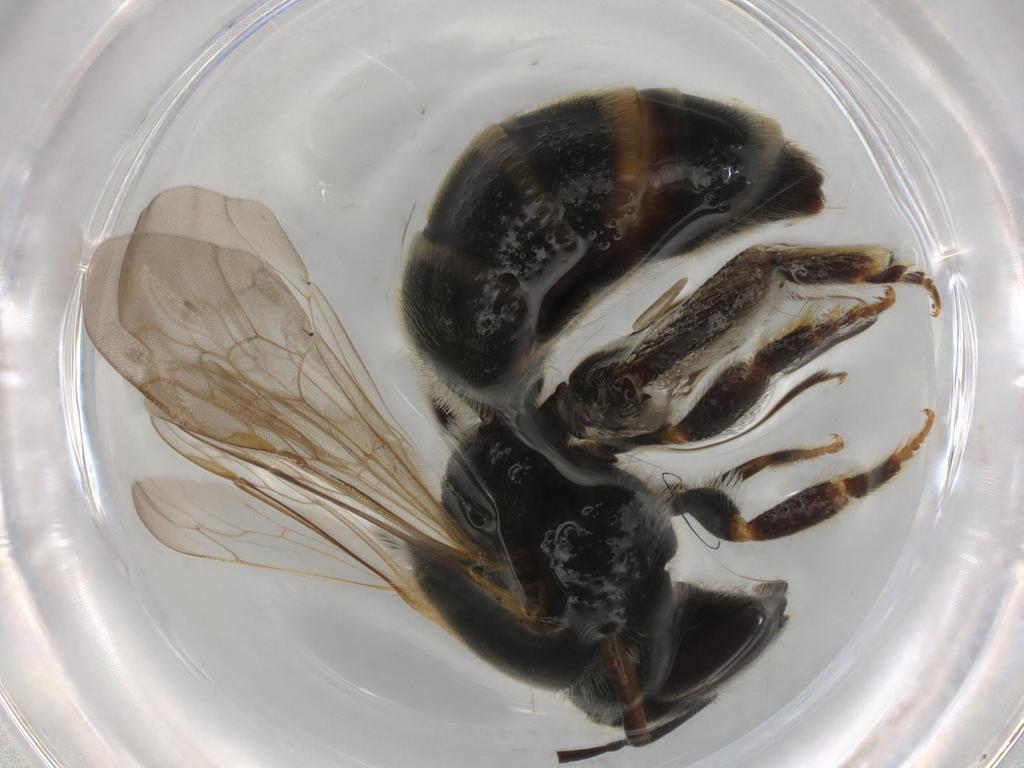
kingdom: Animalia
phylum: Arthropoda
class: Insecta
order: Hymenoptera
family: Halictidae
